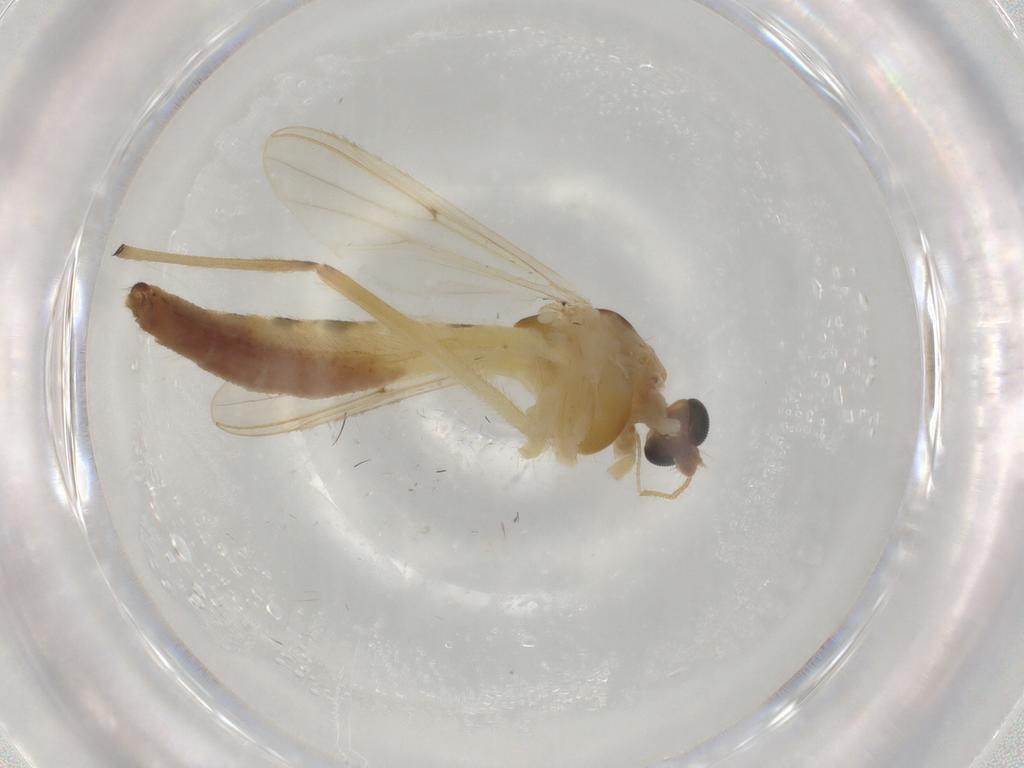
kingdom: Animalia
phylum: Arthropoda
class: Insecta
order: Diptera
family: Chironomidae
